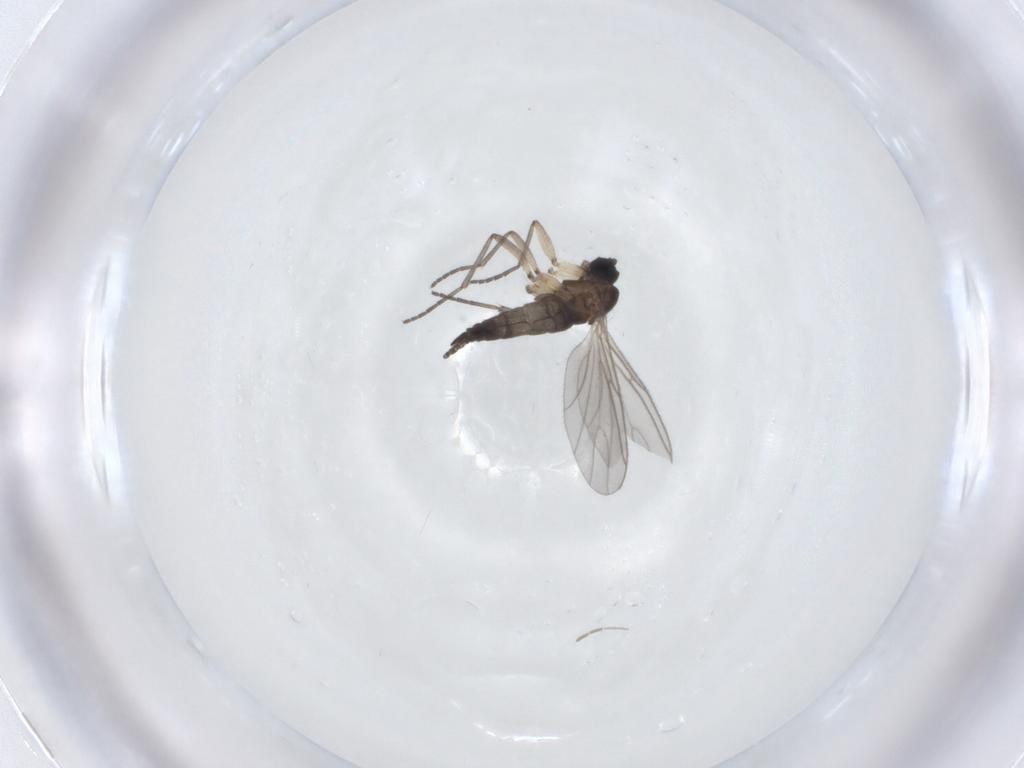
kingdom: Animalia
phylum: Arthropoda
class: Insecta
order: Diptera
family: Sciaridae
